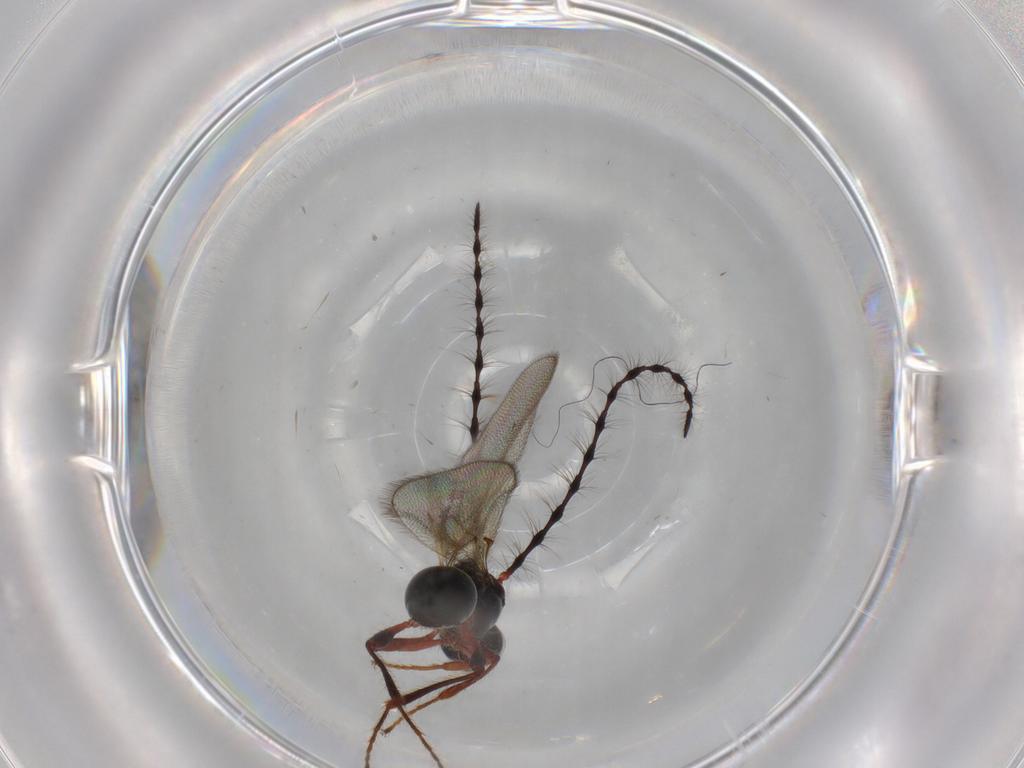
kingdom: Animalia
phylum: Arthropoda
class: Insecta
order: Hymenoptera
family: Diapriidae
